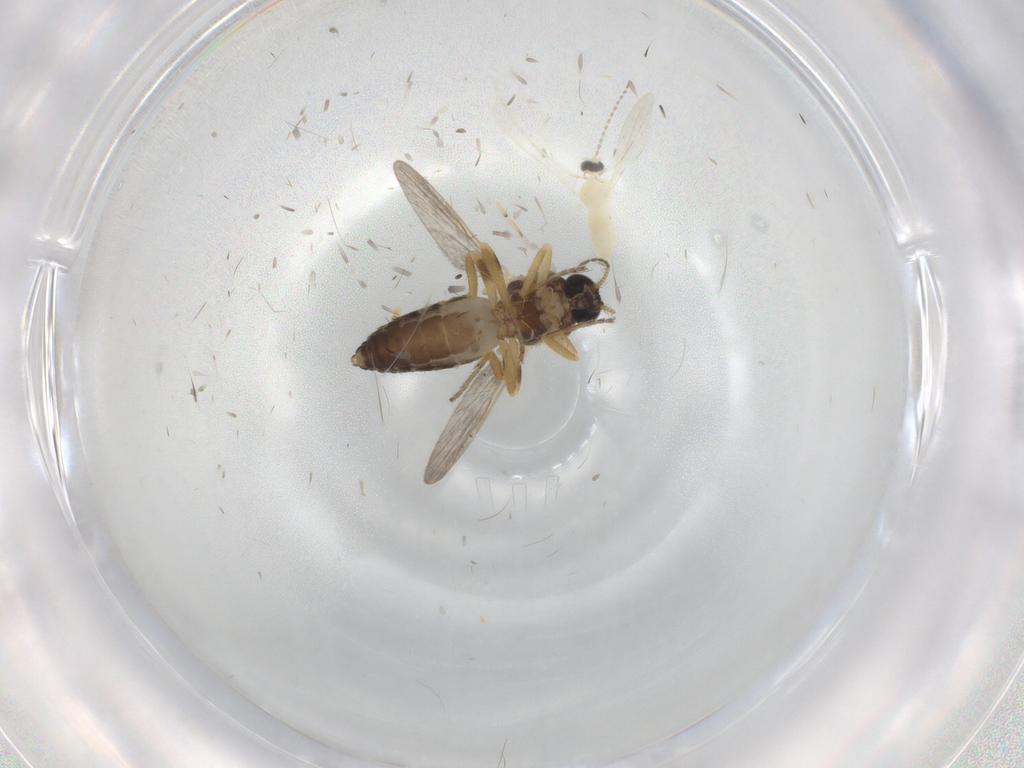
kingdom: Animalia
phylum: Arthropoda
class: Insecta
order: Diptera
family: Ceratopogonidae
